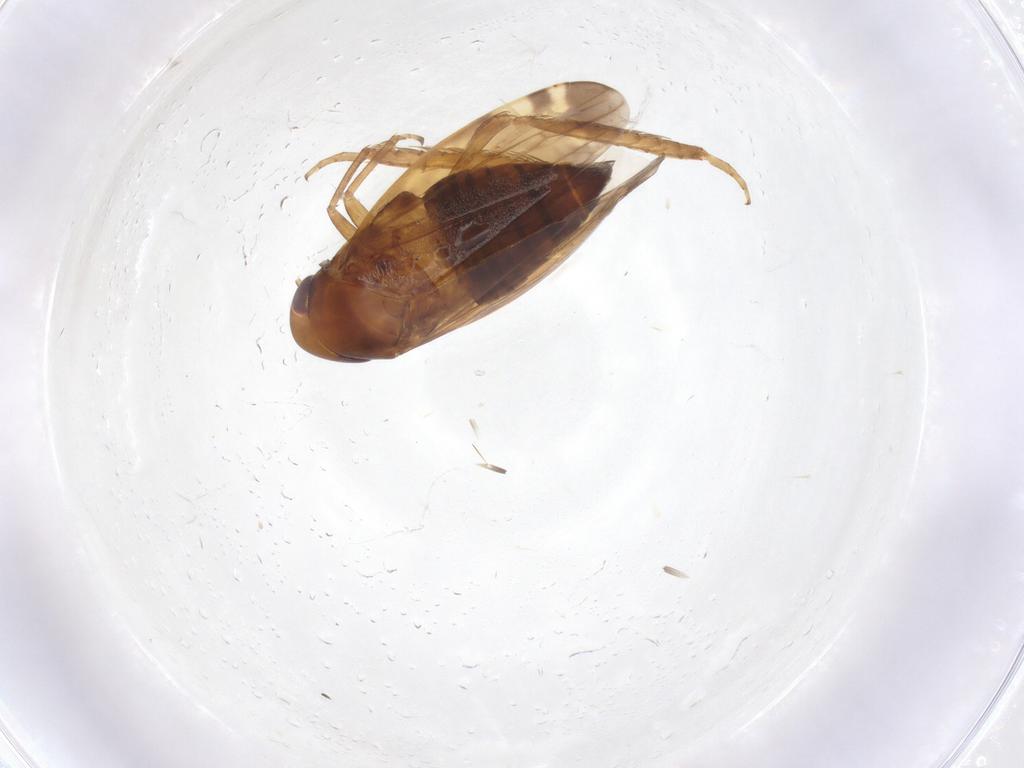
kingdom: Animalia
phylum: Arthropoda
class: Insecta
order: Hemiptera
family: Cicadellidae
